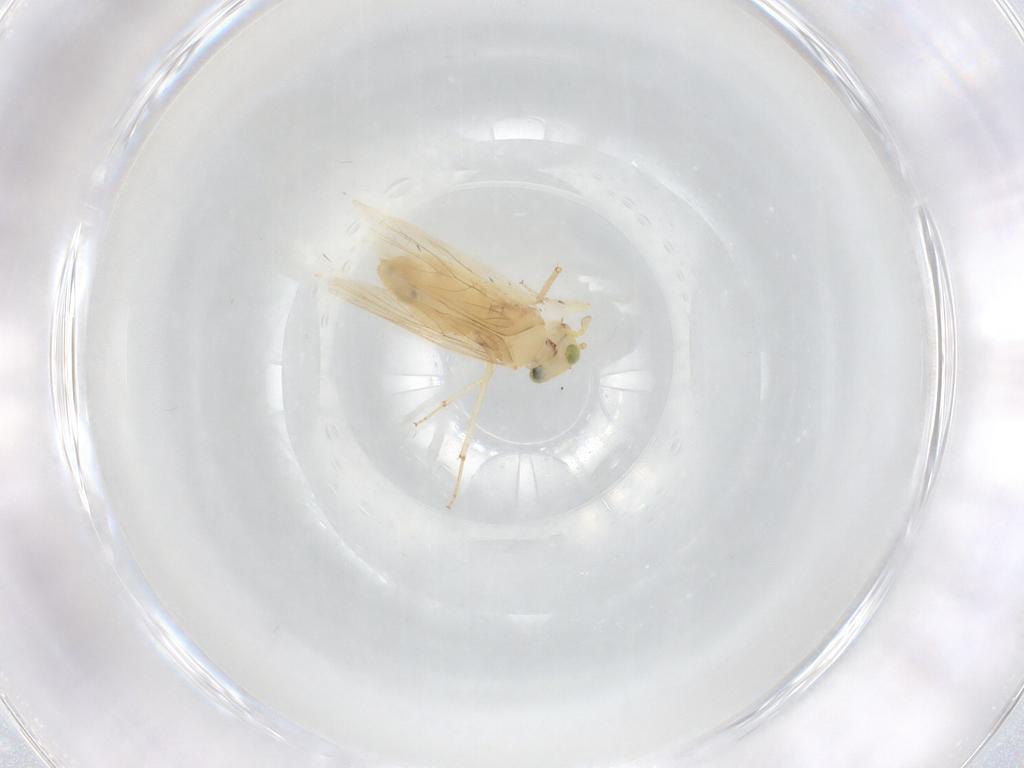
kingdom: Animalia
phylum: Arthropoda
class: Insecta
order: Psocodea
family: Lepidopsocidae
